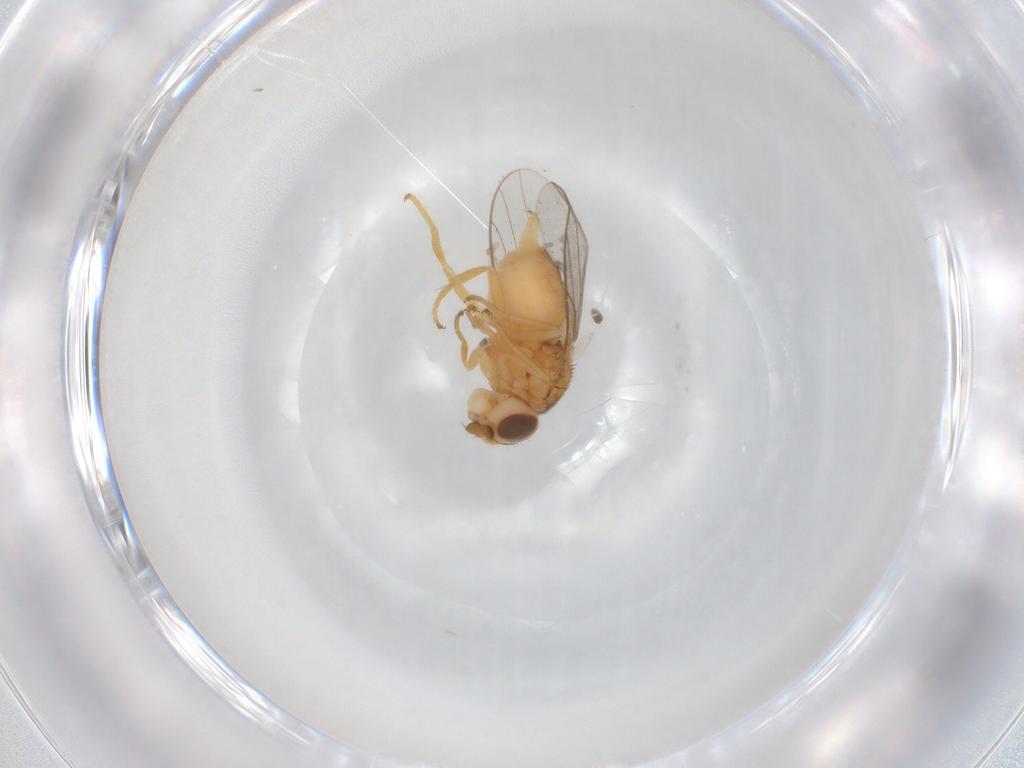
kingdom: Animalia
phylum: Arthropoda
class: Insecta
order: Diptera
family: Chloropidae
